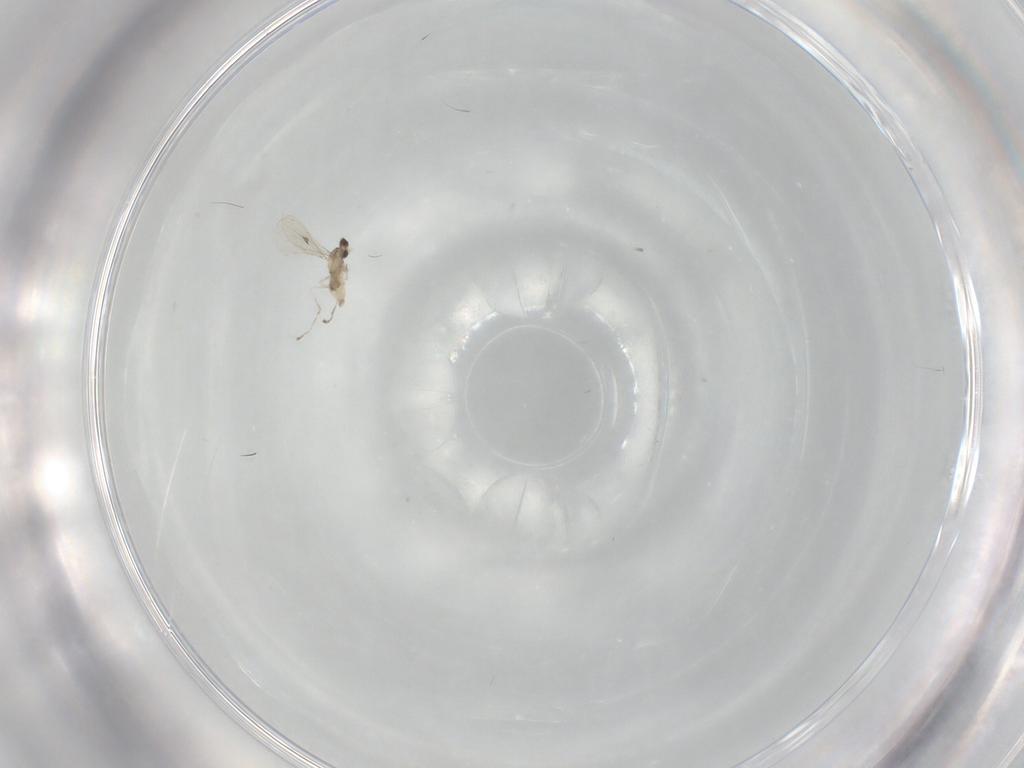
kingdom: Animalia
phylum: Arthropoda
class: Insecta
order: Diptera
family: Cecidomyiidae
